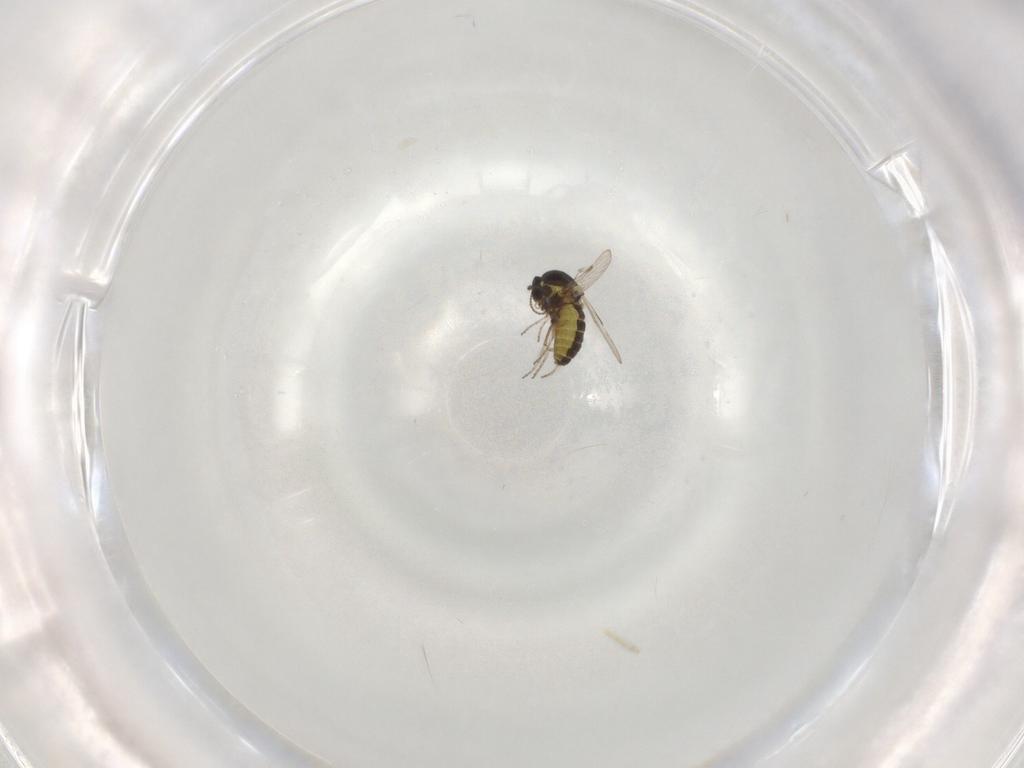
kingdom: Animalia
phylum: Arthropoda
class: Insecta
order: Diptera
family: Ceratopogonidae
